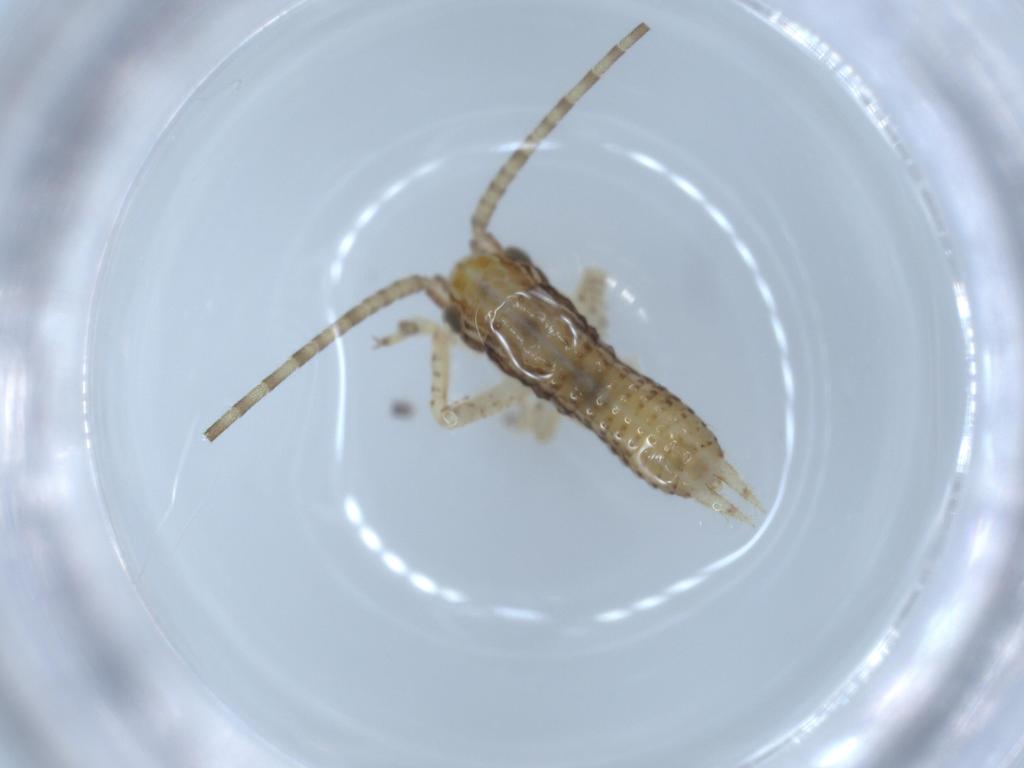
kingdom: Animalia
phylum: Arthropoda
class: Insecta
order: Orthoptera
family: Gryllidae
